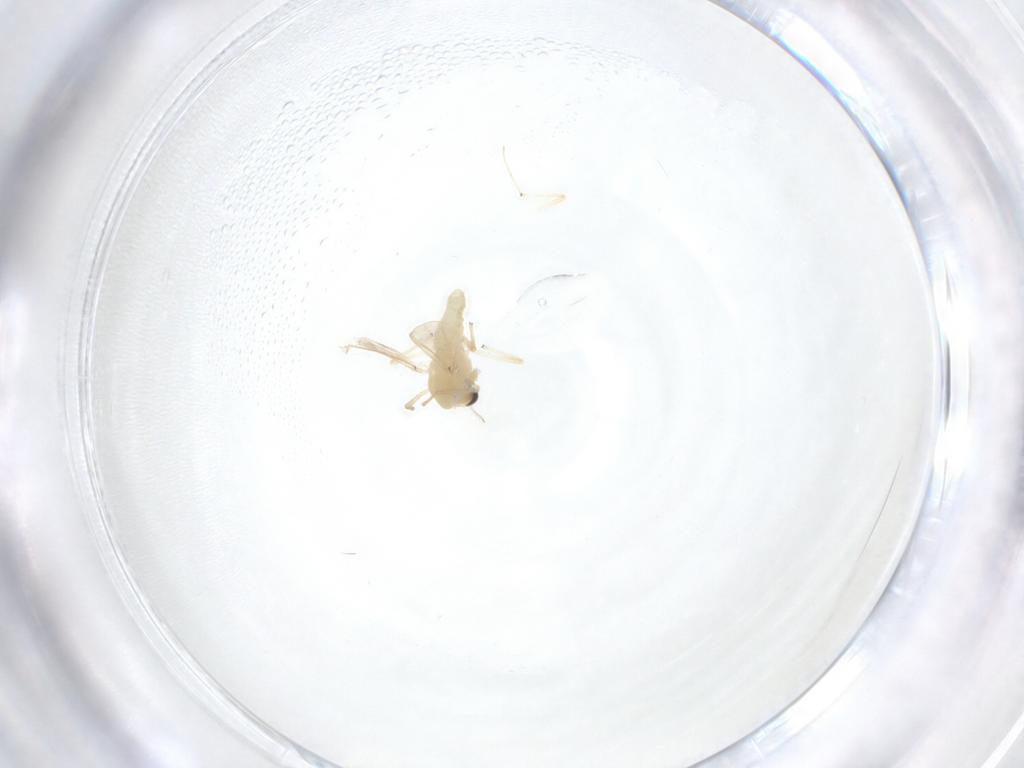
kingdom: Animalia
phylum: Arthropoda
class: Insecta
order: Diptera
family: Chironomidae
